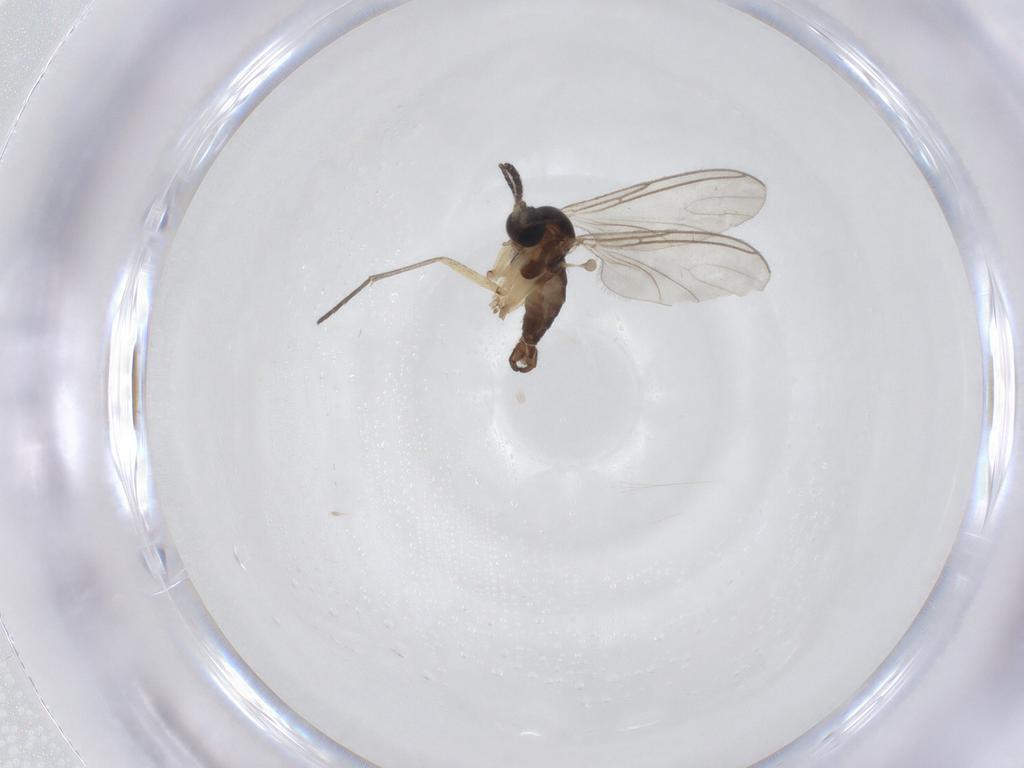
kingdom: Animalia
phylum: Arthropoda
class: Insecta
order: Diptera
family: Sciaridae
